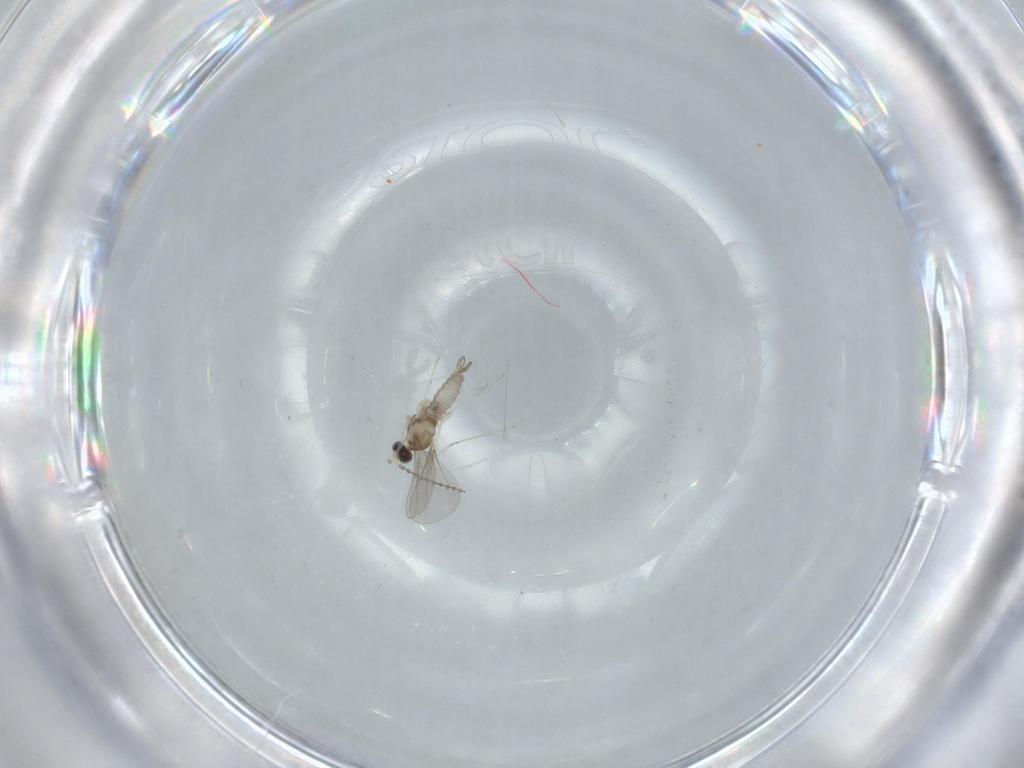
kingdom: Animalia
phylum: Arthropoda
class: Insecta
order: Diptera
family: Cecidomyiidae
